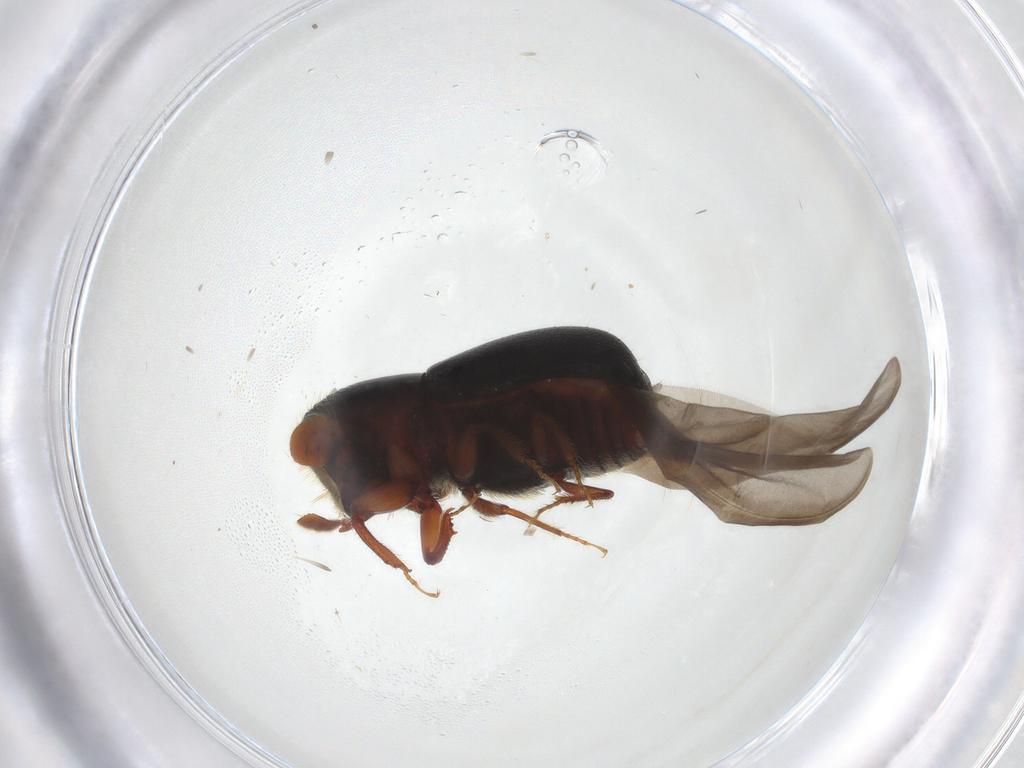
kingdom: Animalia
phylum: Arthropoda
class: Insecta
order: Coleoptera
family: Curculionidae
